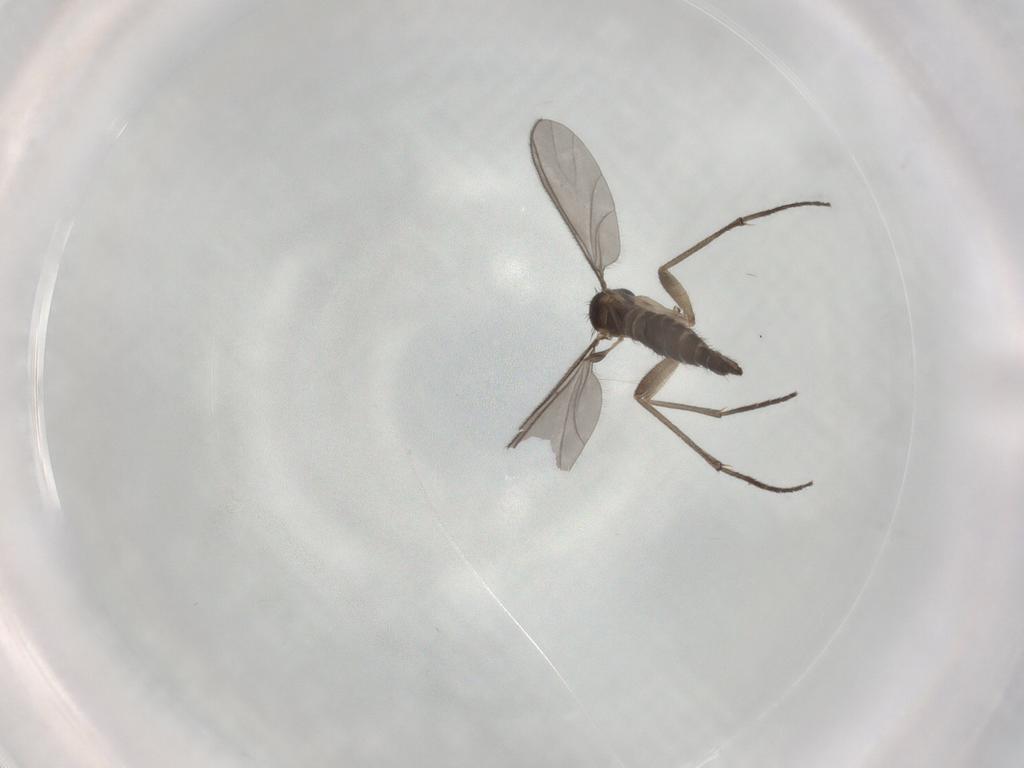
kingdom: Animalia
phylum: Arthropoda
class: Insecta
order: Diptera
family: Sciaridae
